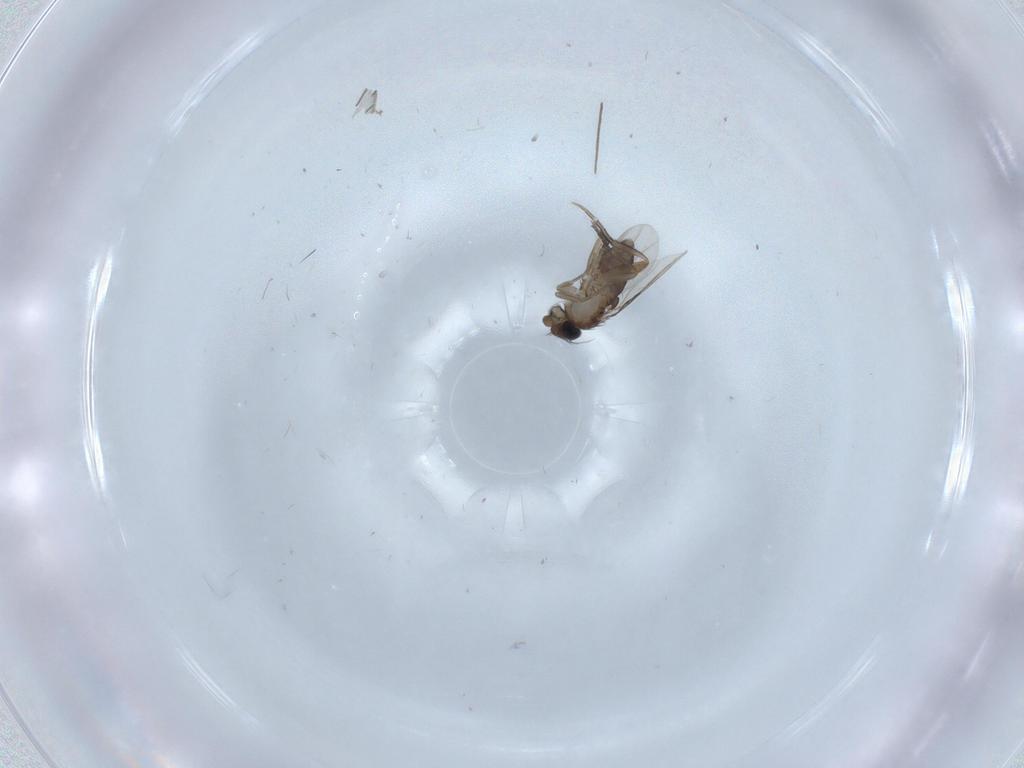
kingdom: Animalia
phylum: Arthropoda
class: Insecta
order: Diptera
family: Phoridae
